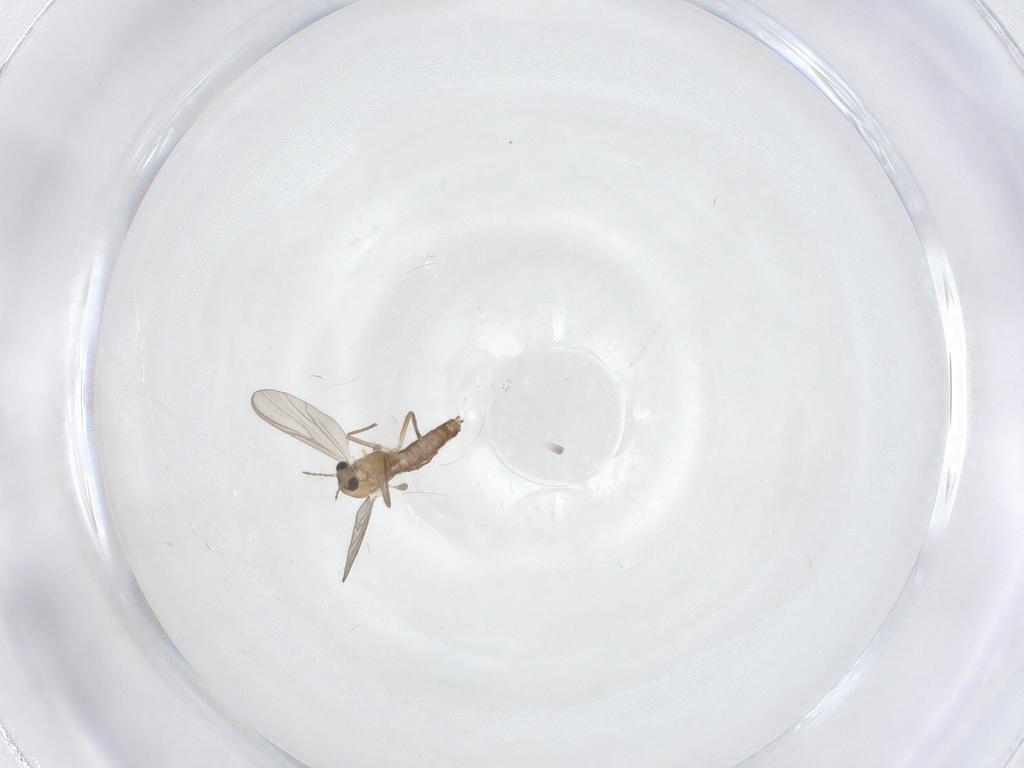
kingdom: Animalia
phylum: Arthropoda
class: Insecta
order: Diptera
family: Chironomidae
